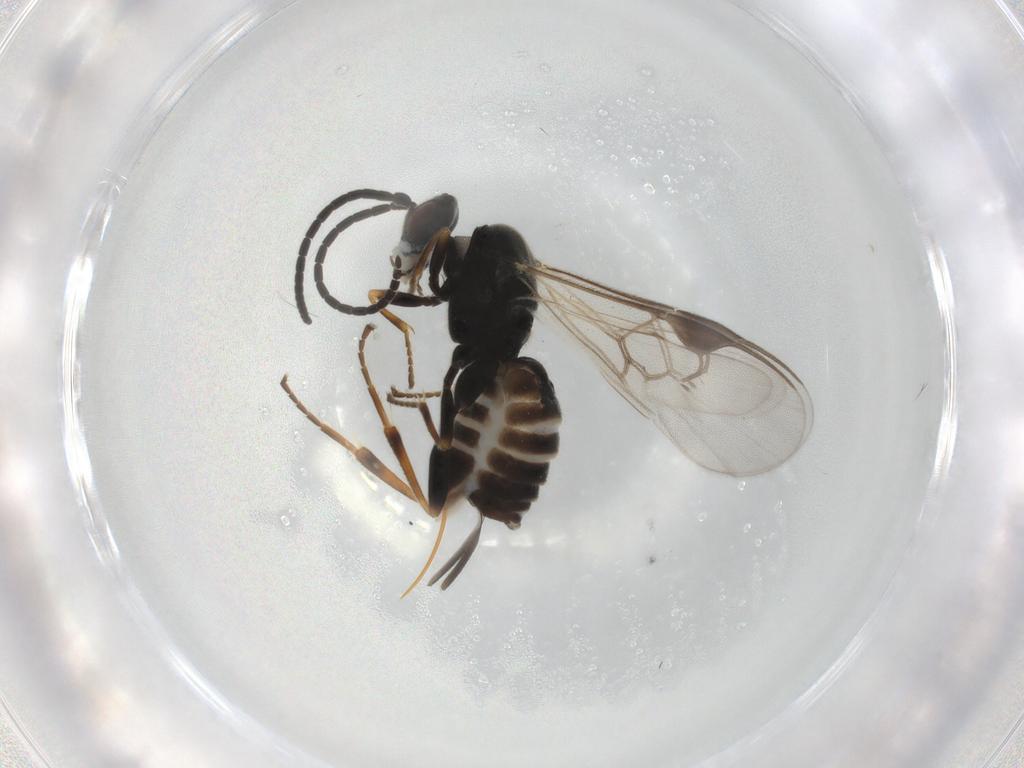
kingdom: Animalia
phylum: Arthropoda
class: Insecta
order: Hymenoptera
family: Braconidae
